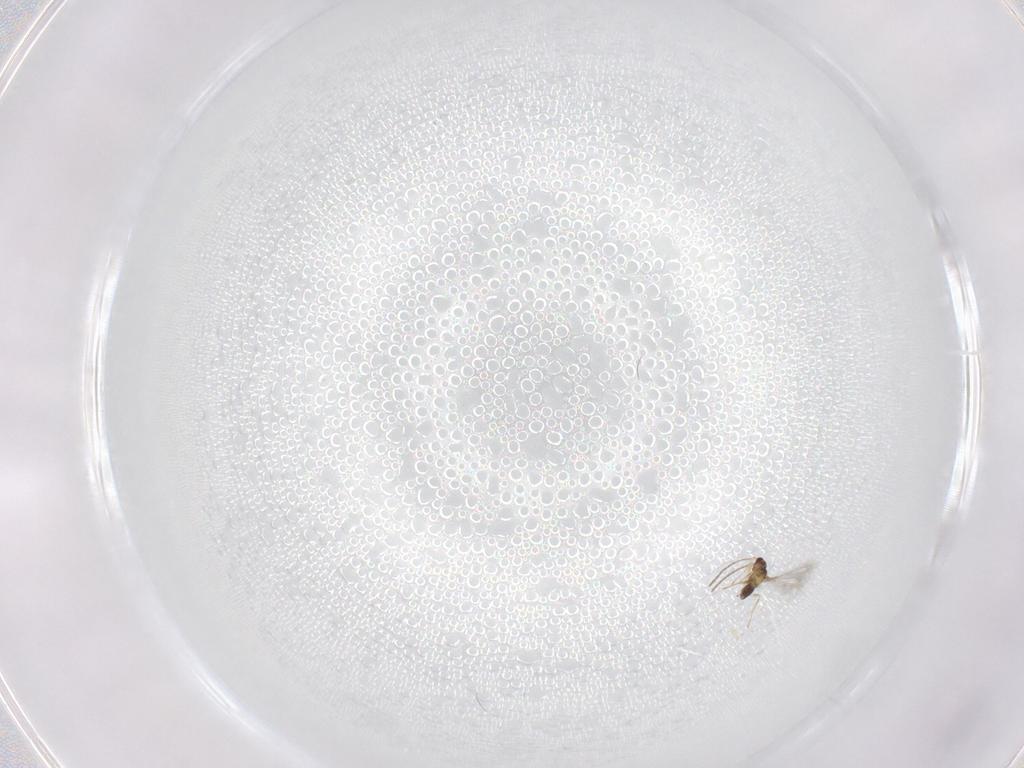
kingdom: Animalia
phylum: Arthropoda
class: Insecta
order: Hymenoptera
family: Mymaridae
